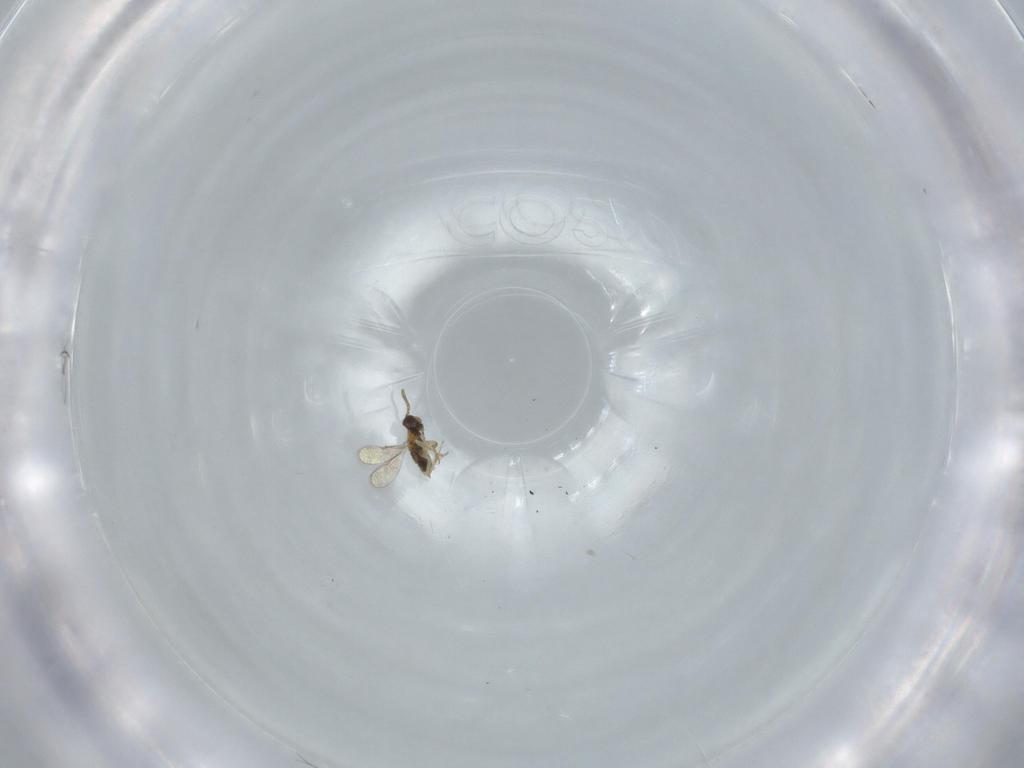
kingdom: Animalia
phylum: Arthropoda
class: Insecta
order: Hymenoptera
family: Aphelinidae
